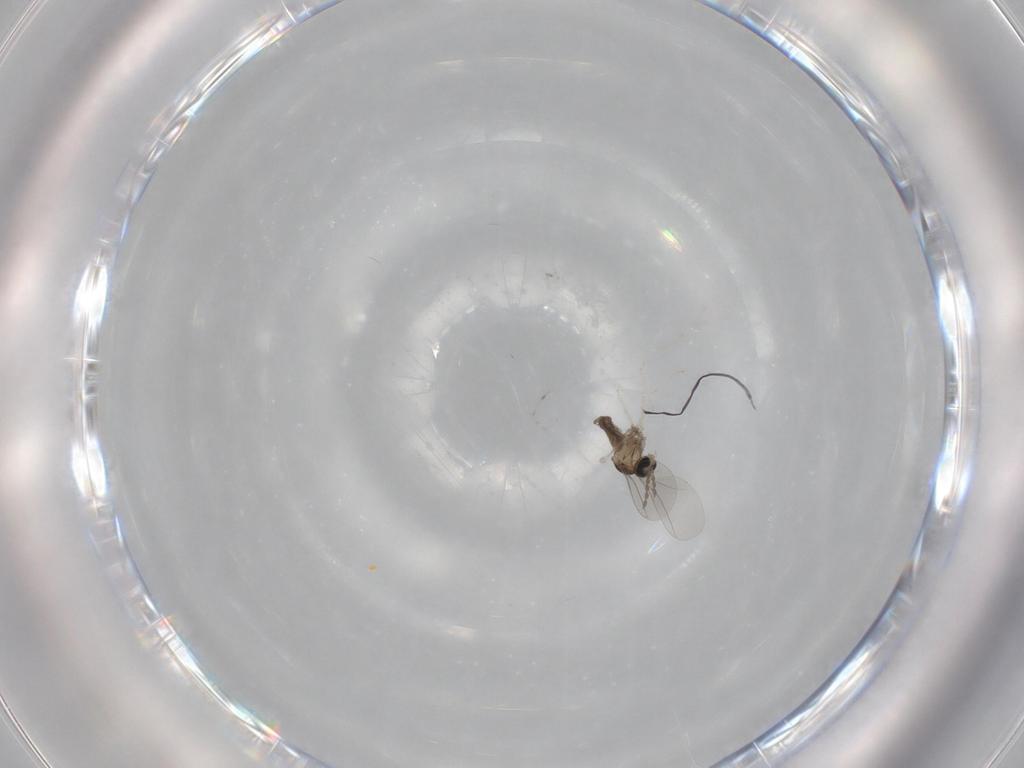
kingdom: Animalia
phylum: Arthropoda
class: Insecta
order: Diptera
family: Cecidomyiidae
